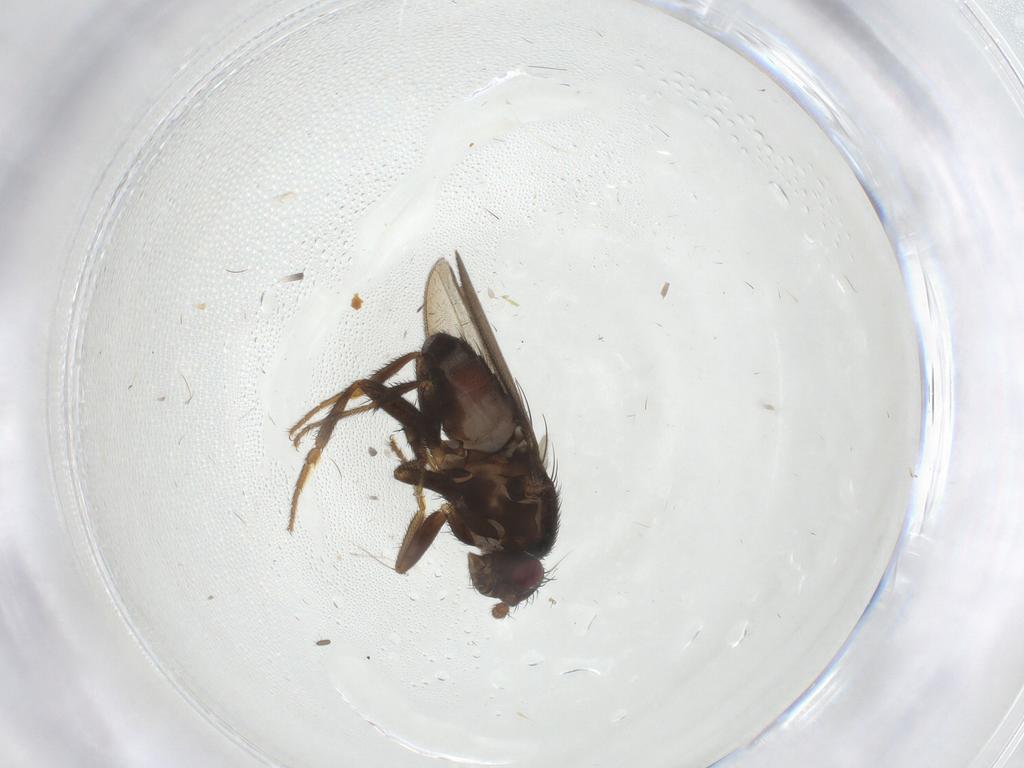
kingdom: Animalia
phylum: Arthropoda
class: Insecta
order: Diptera
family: Sphaeroceridae
